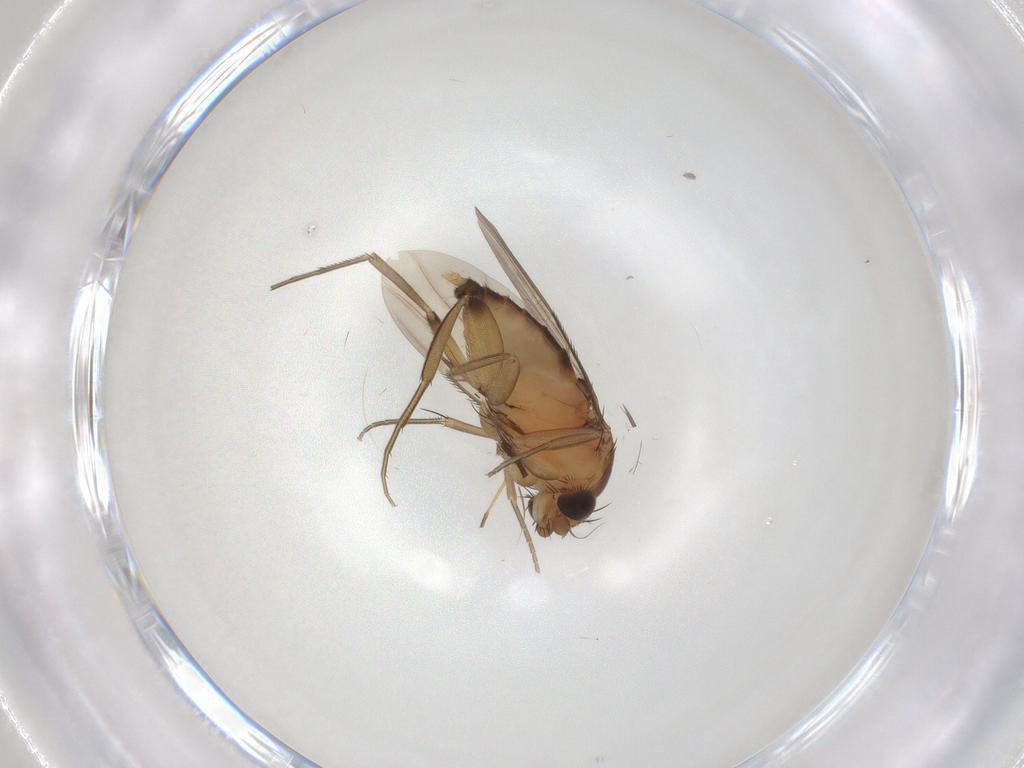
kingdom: Animalia
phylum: Arthropoda
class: Insecta
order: Diptera
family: Phoridae
